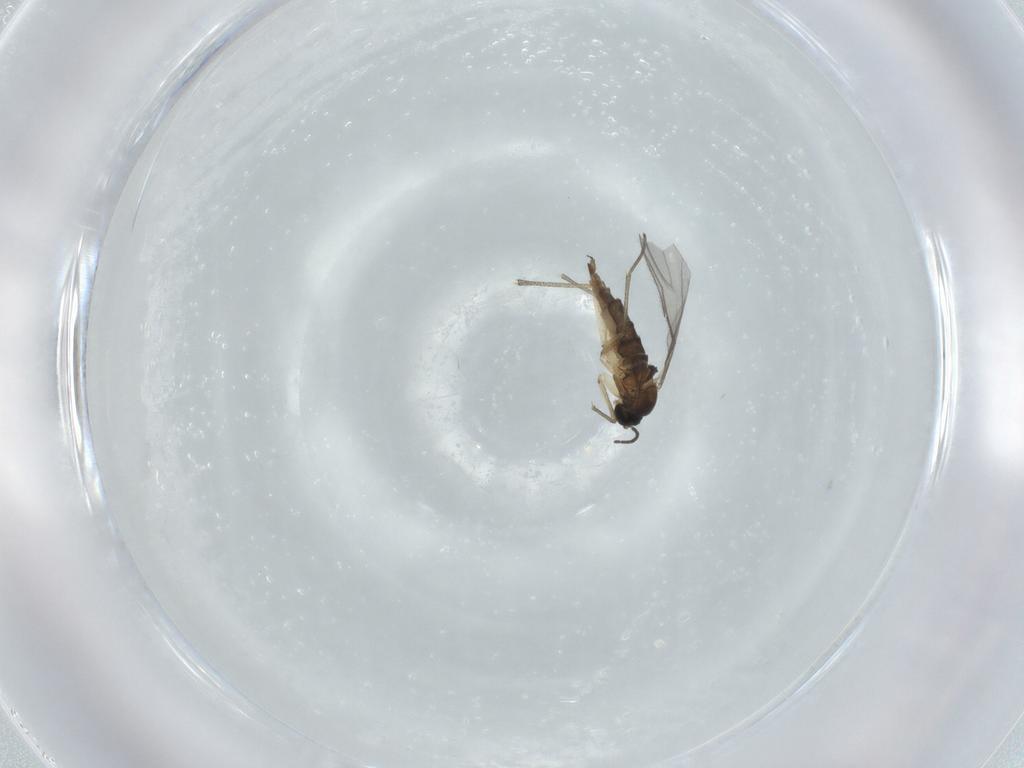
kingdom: Animalia
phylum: Arthropoda
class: Insecta
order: Diptera
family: Sciaridae
